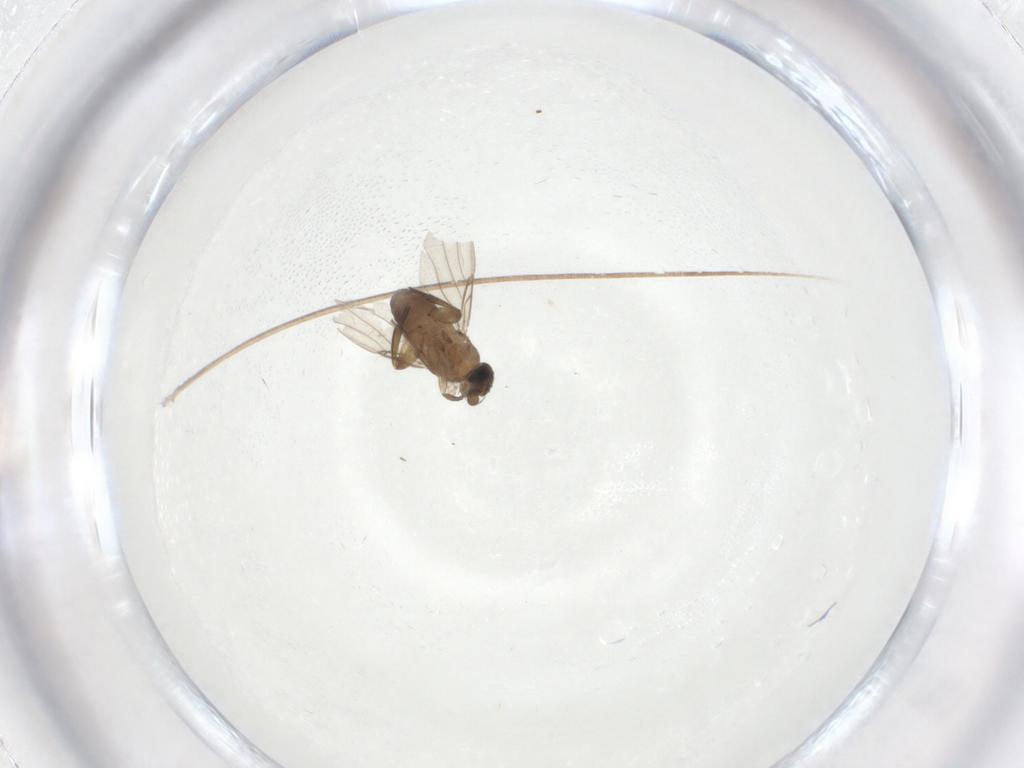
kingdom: Animalia
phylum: Arthropoda
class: Insecta
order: Diptera
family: Phoridae
